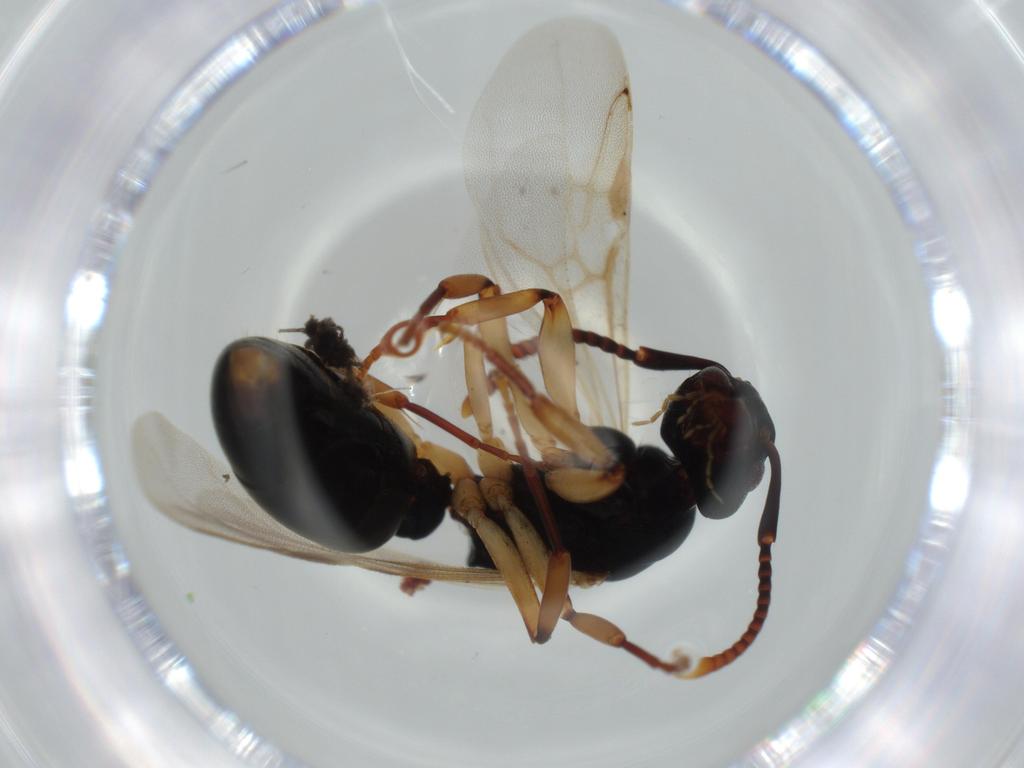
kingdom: Animalia
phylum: Arthropoda
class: Insecta
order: Hymenoptera
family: Formicidae
